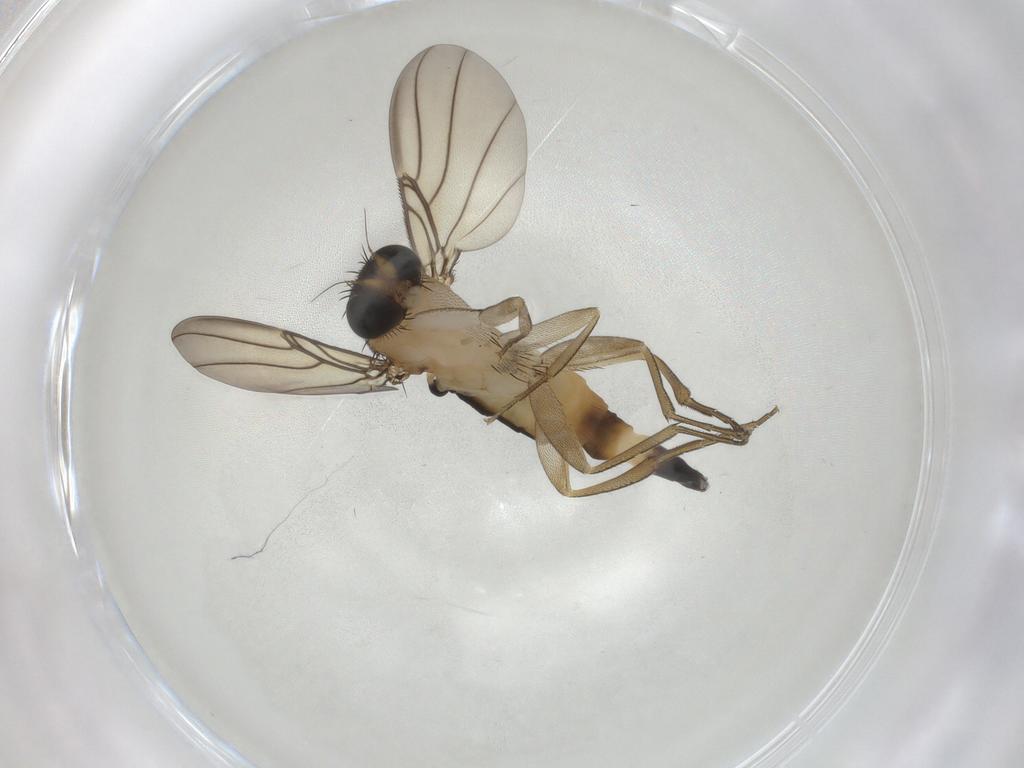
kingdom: Animalia
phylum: Arthropoda
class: Insecta
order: Diptera
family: Phoridae
